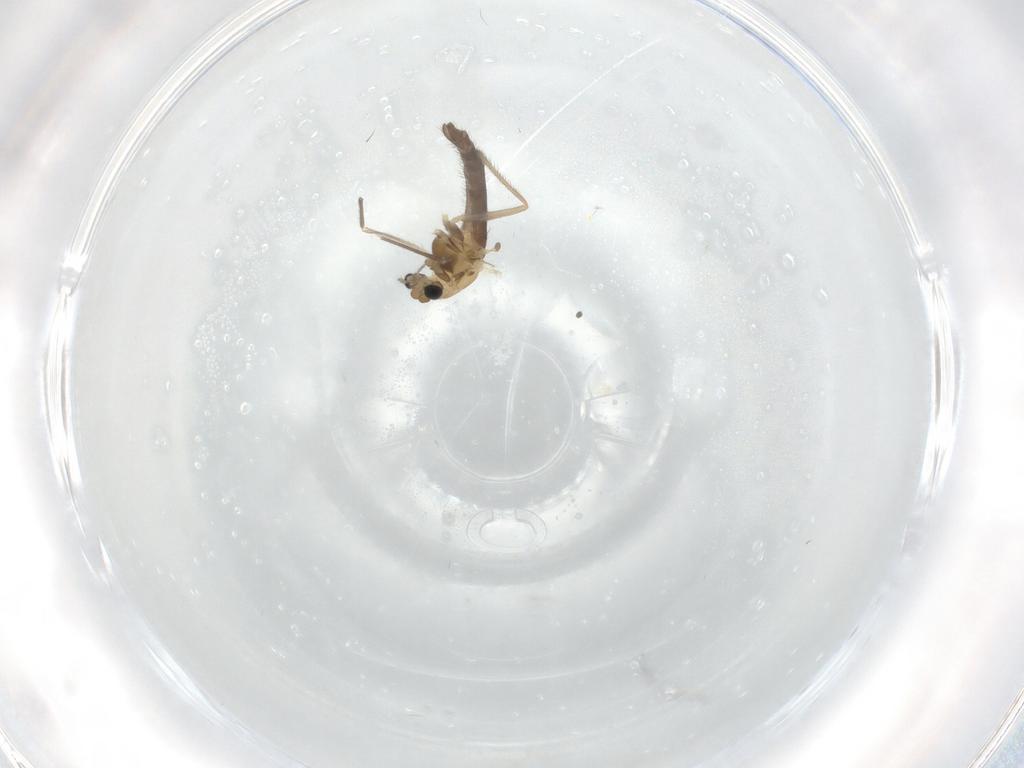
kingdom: Animalia
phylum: Arthropoda
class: Insecta
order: Diptera
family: Chironomidae
